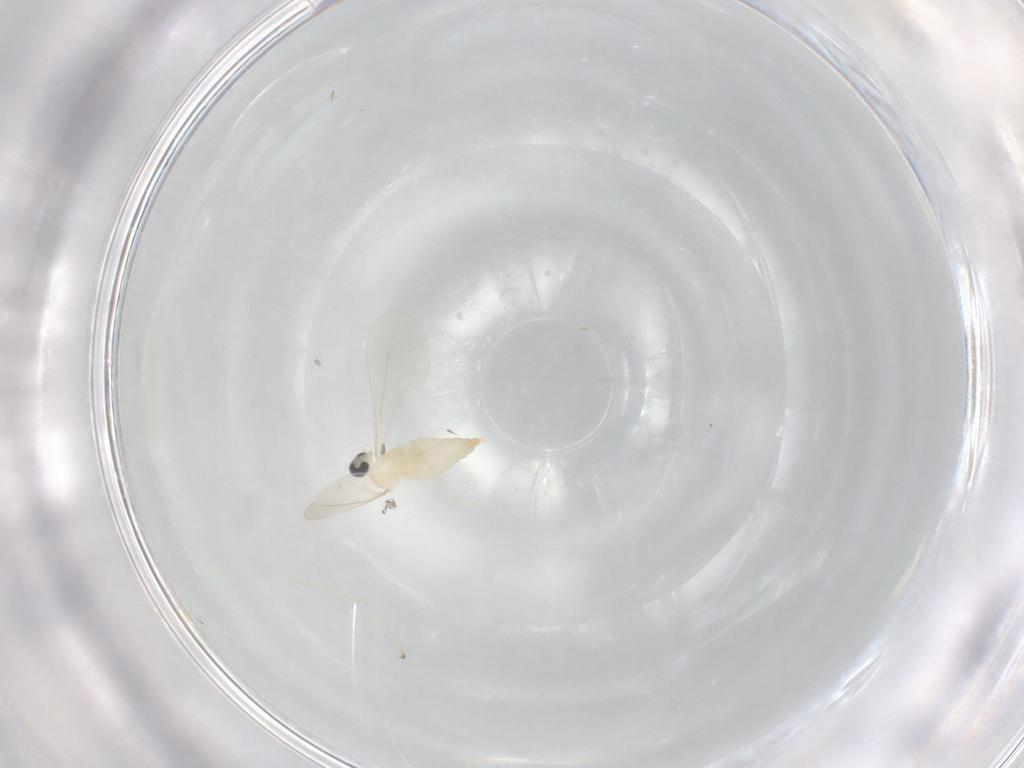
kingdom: Animalia
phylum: Arthropoda
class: Insecta
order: Diptera
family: Cecidomyiidae
